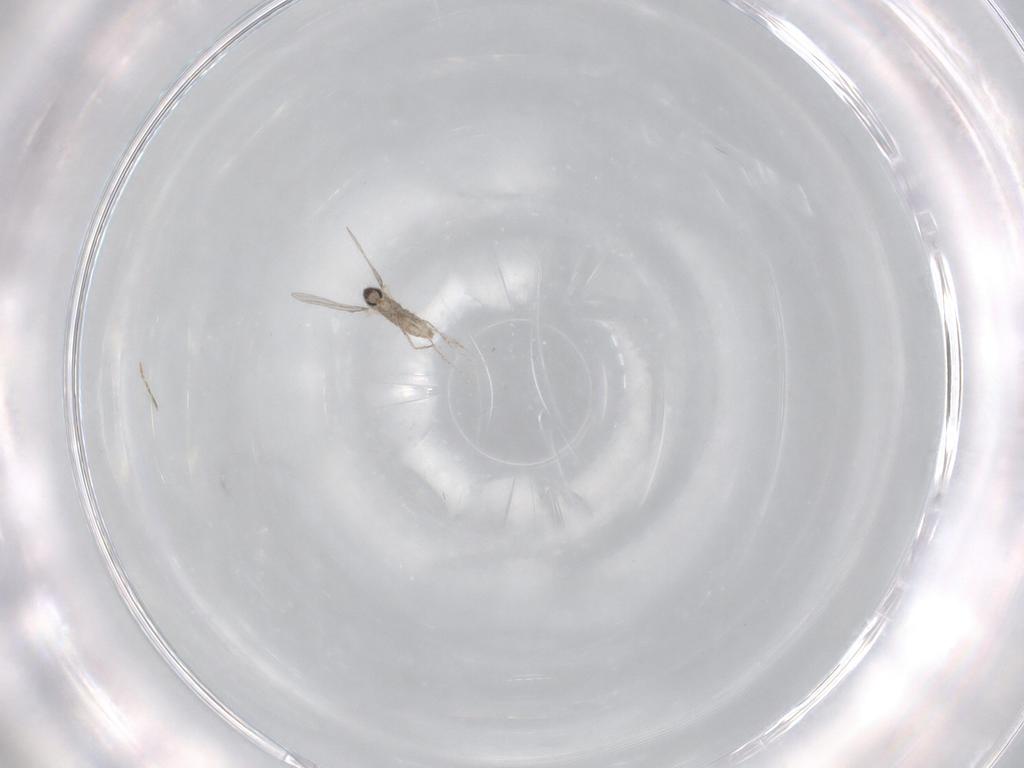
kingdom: Animalia
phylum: Arthropoda
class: Insecta
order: Diptera
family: Cecidomyiidae
